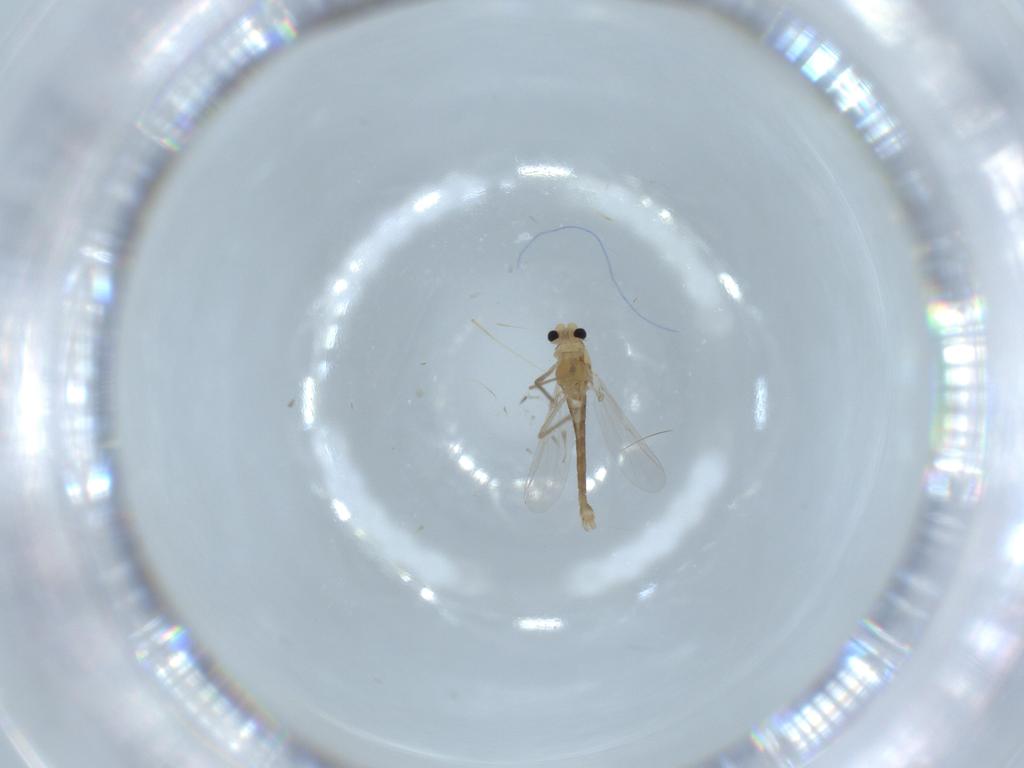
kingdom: Animalia
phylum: Arthropoda
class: Insecta
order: Diptera
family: Chironomidae
